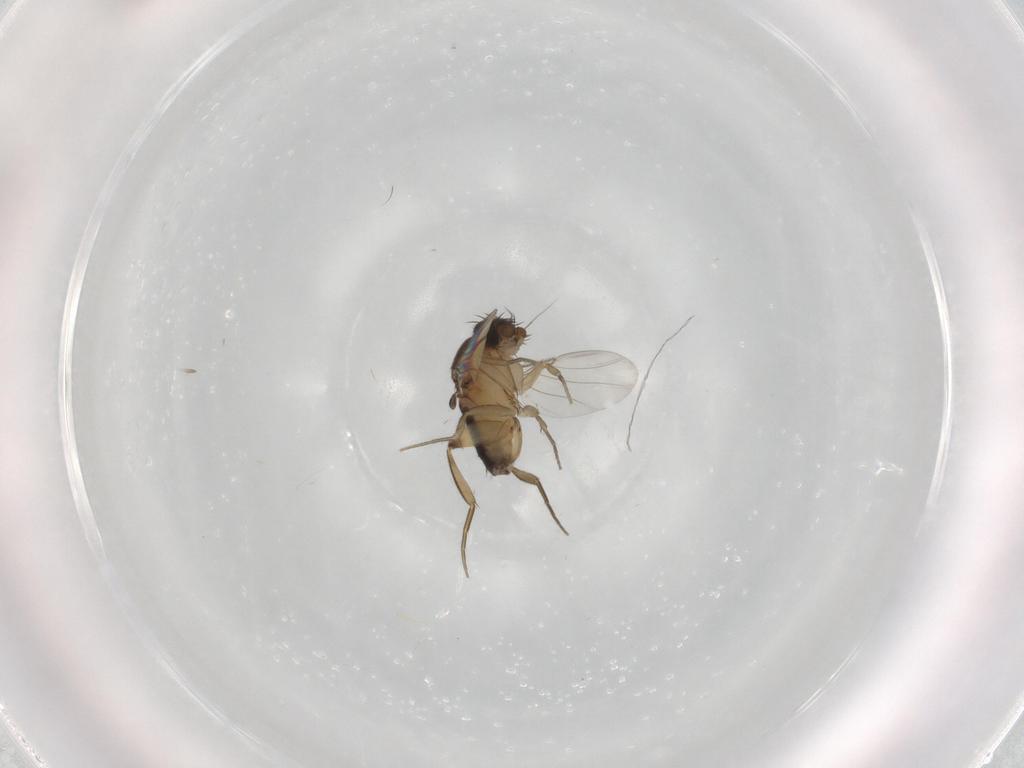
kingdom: Animalia
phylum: Arthropoda
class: Insecta
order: Diptera
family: Phoridae
